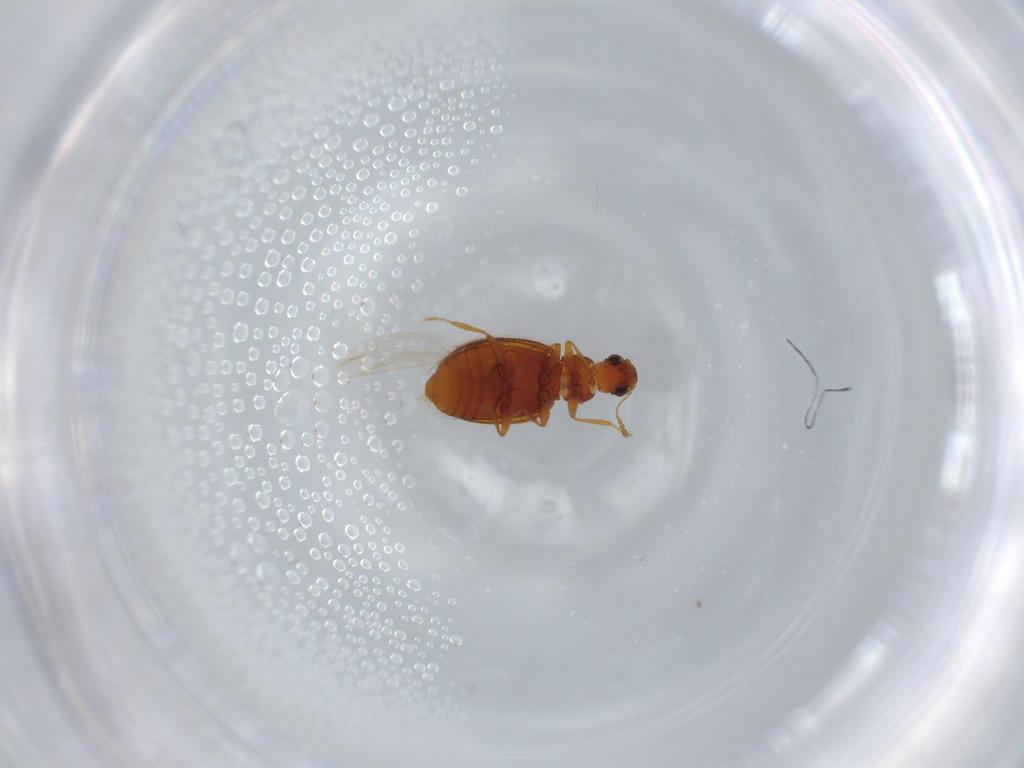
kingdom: Animalia
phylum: Arthropoda
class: Insecta
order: Coleoptera
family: Latridiidae
